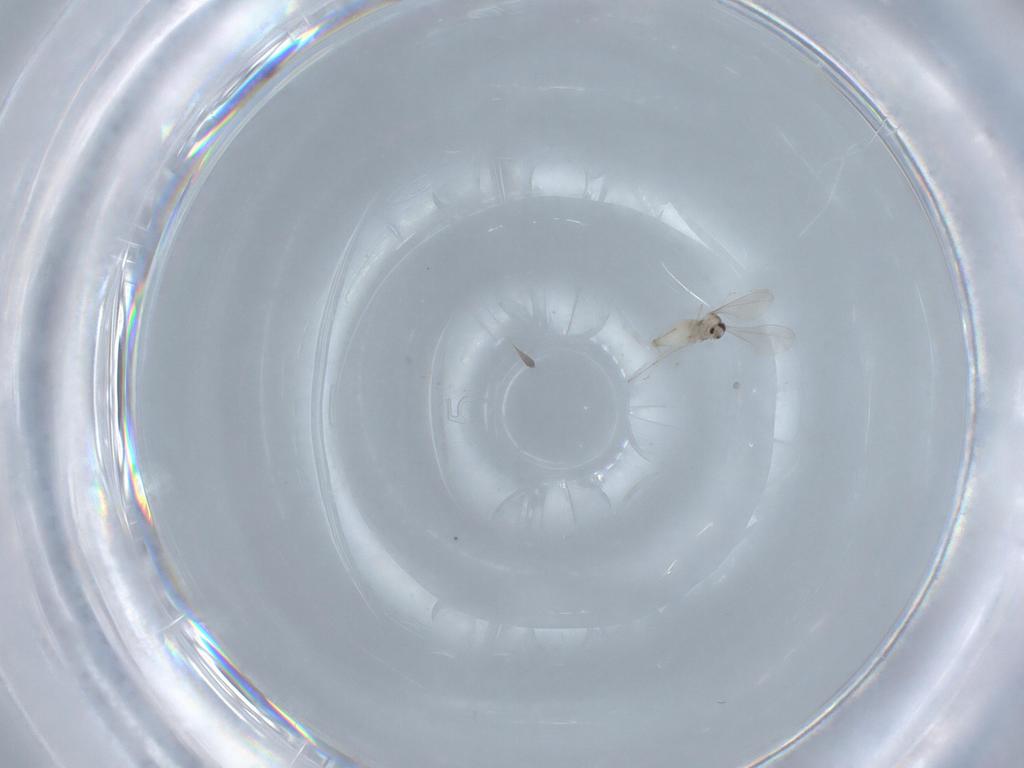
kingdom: Animalia
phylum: Arthropoda
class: Insecta
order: Diptera
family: Cecidomyiidae
